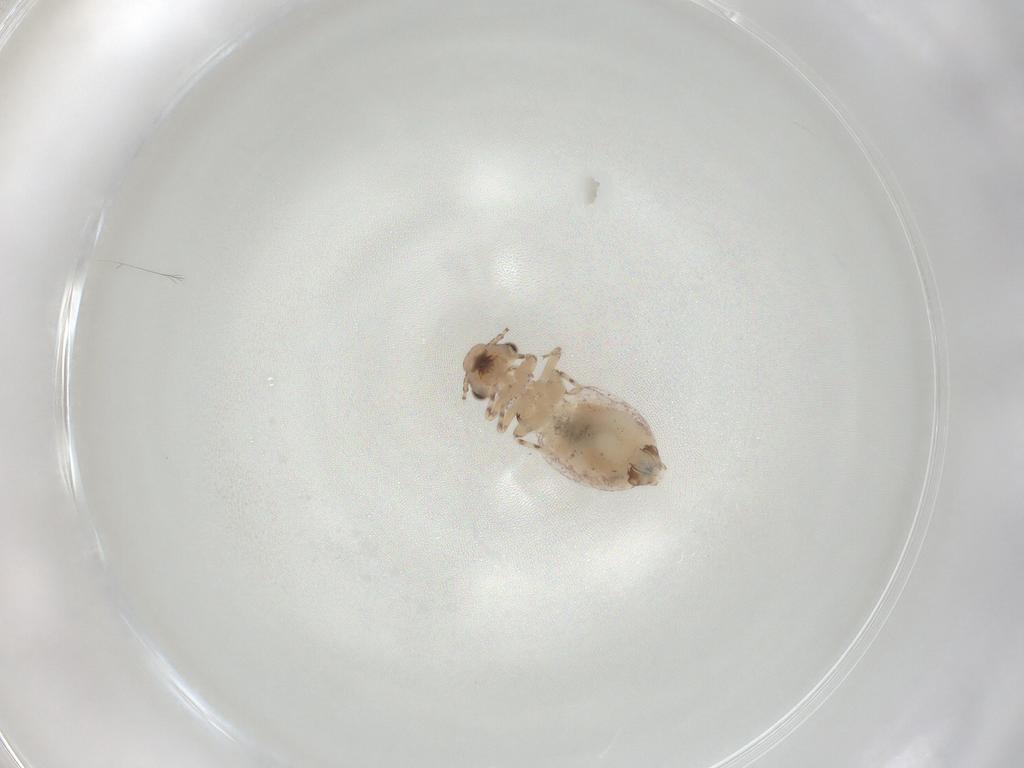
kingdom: Animalia
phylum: Arthropoda
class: Insecta
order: Psocodea
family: Trogiidae
